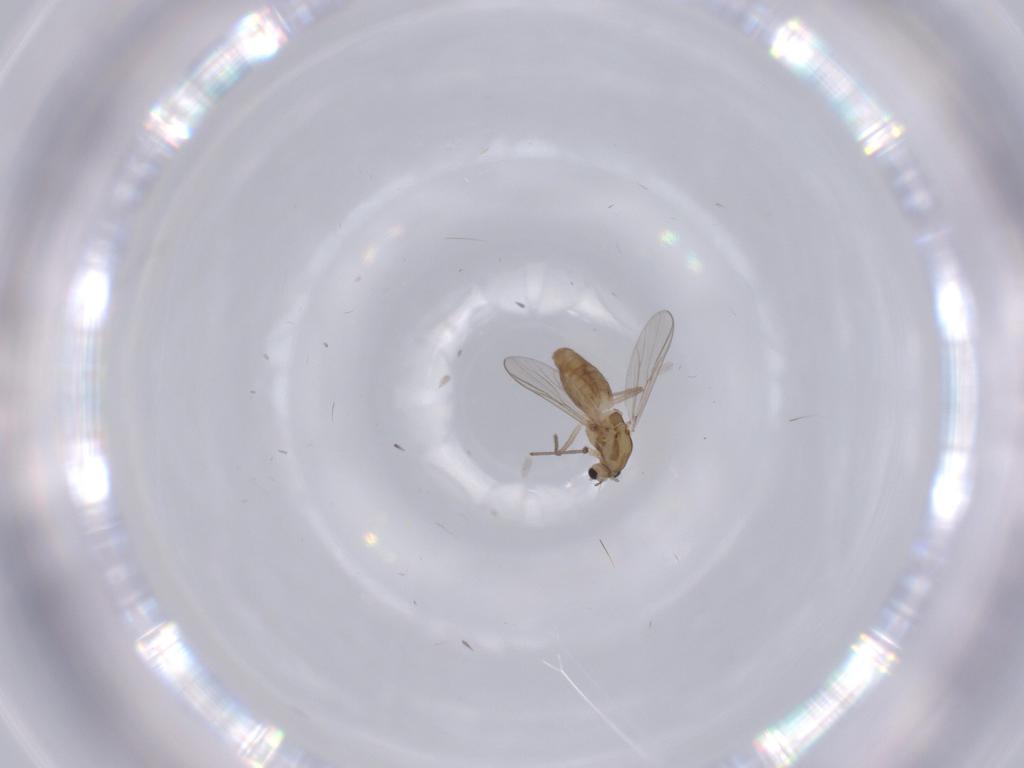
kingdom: Animalia
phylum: Arthropoda
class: Insecta
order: Diptera
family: Chironomidae
